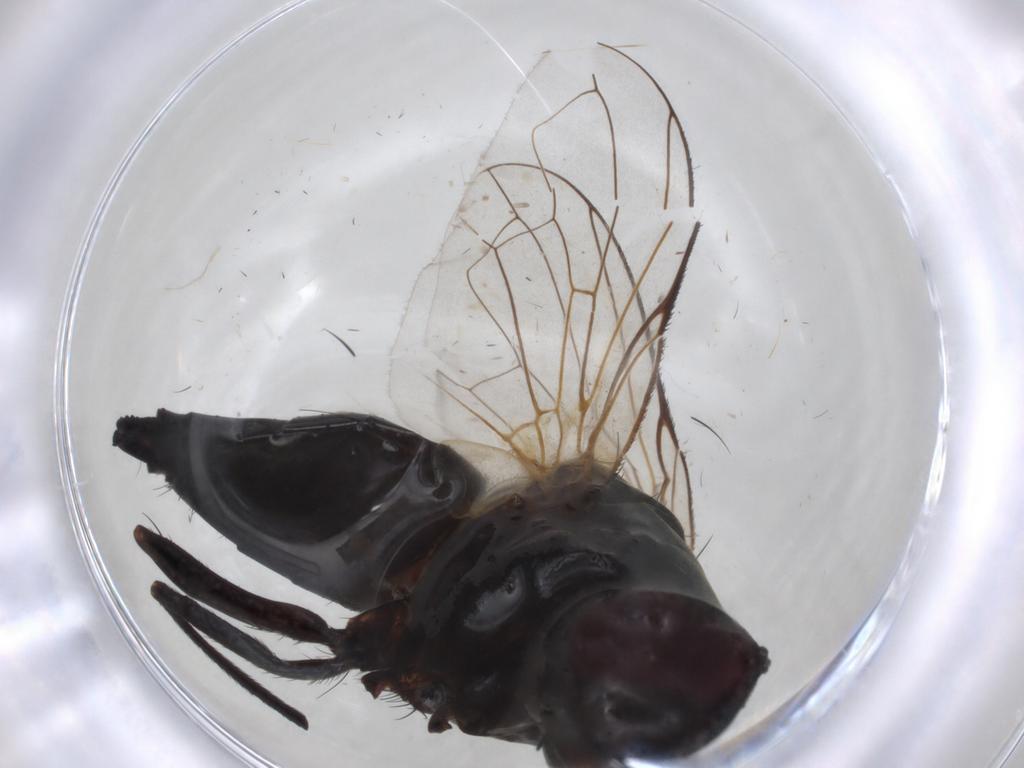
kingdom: Animalia
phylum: Arthropoda
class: Insecta
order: Diptera
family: Tachinidae
